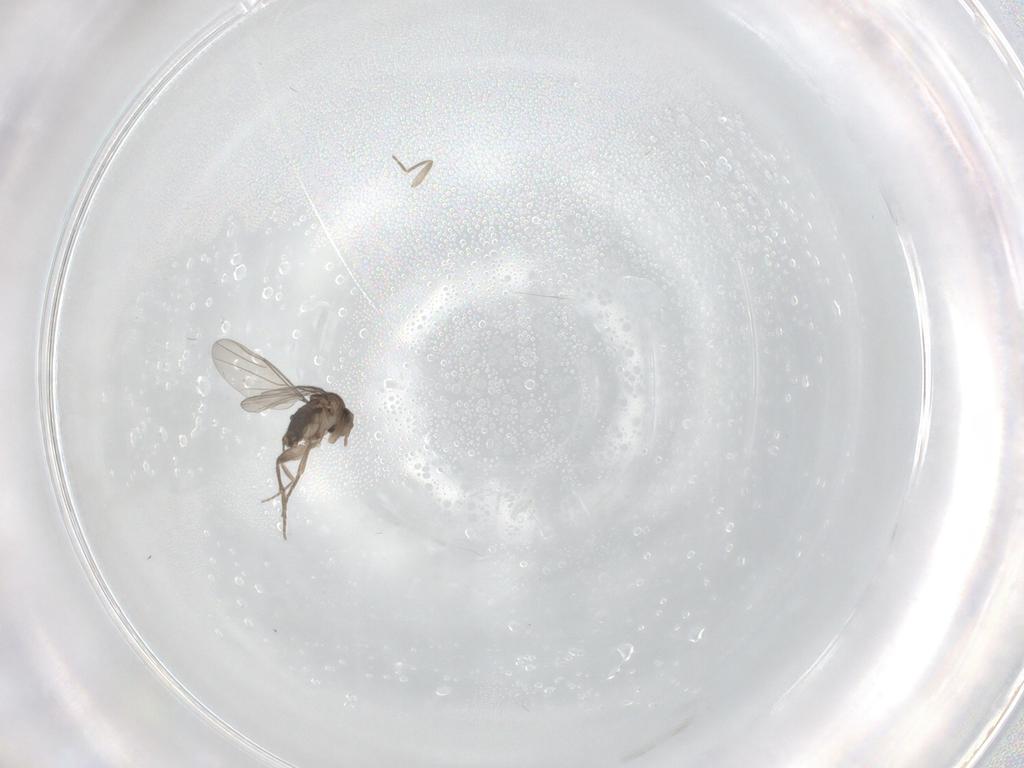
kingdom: Animalia
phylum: Arthropoda
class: Insecta
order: Diptera
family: Phoridae
